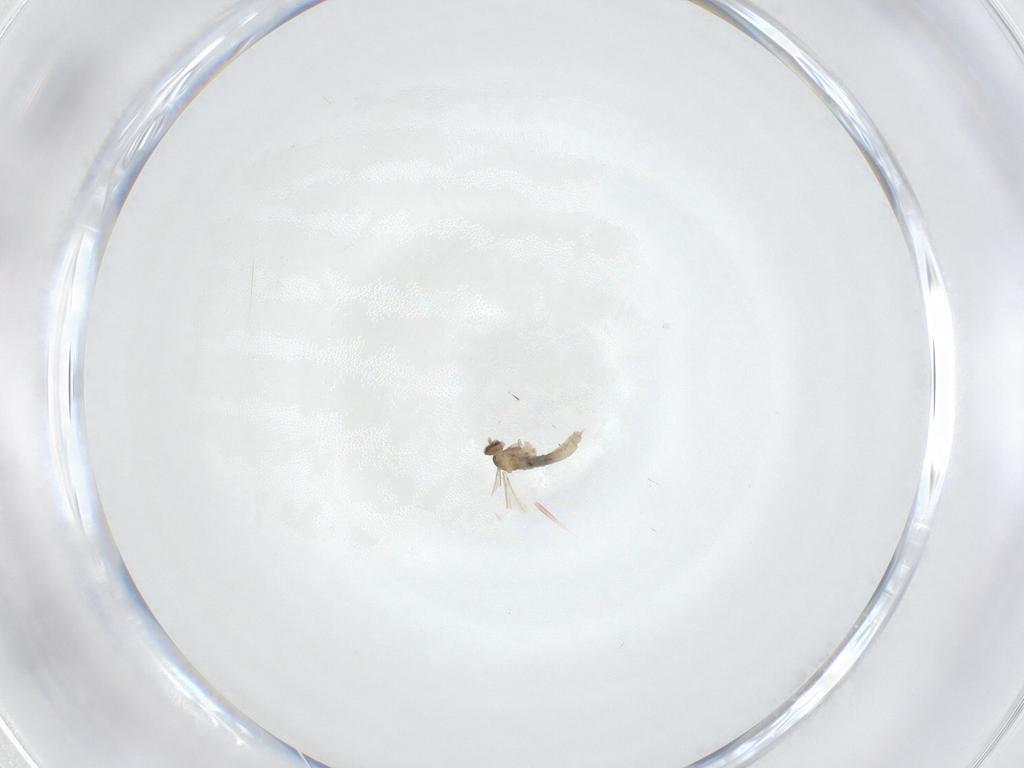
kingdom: Animalia
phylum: Arthropoda
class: Insecta
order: Diptera
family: Cecidomyiidae
